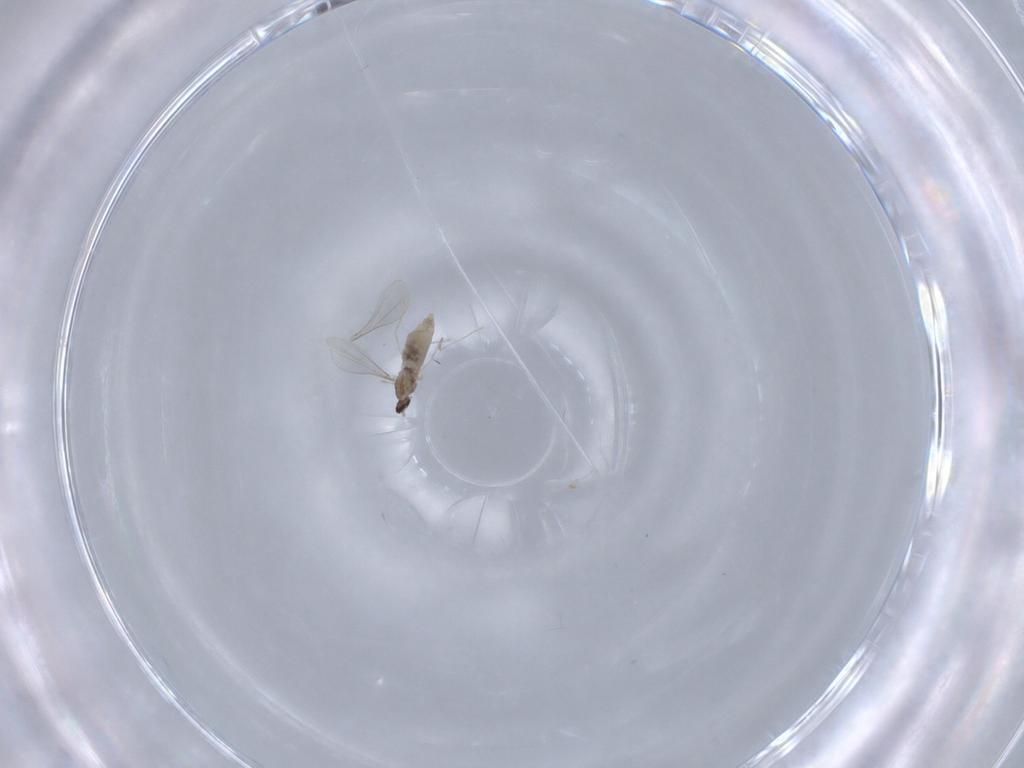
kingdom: Animalia
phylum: Arthropoda
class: Insecta
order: Diptera
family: Cecidomyiidae
